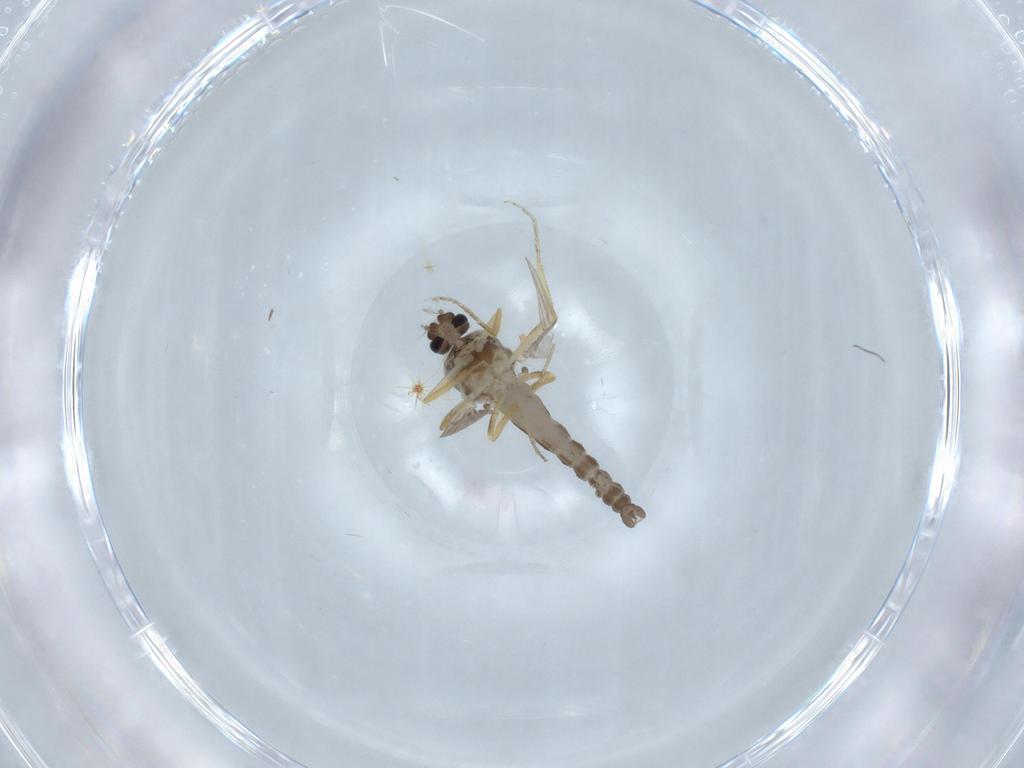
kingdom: Animalia
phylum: Arthropoda
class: Insecta
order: Diptera
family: Ceratopogonidae
